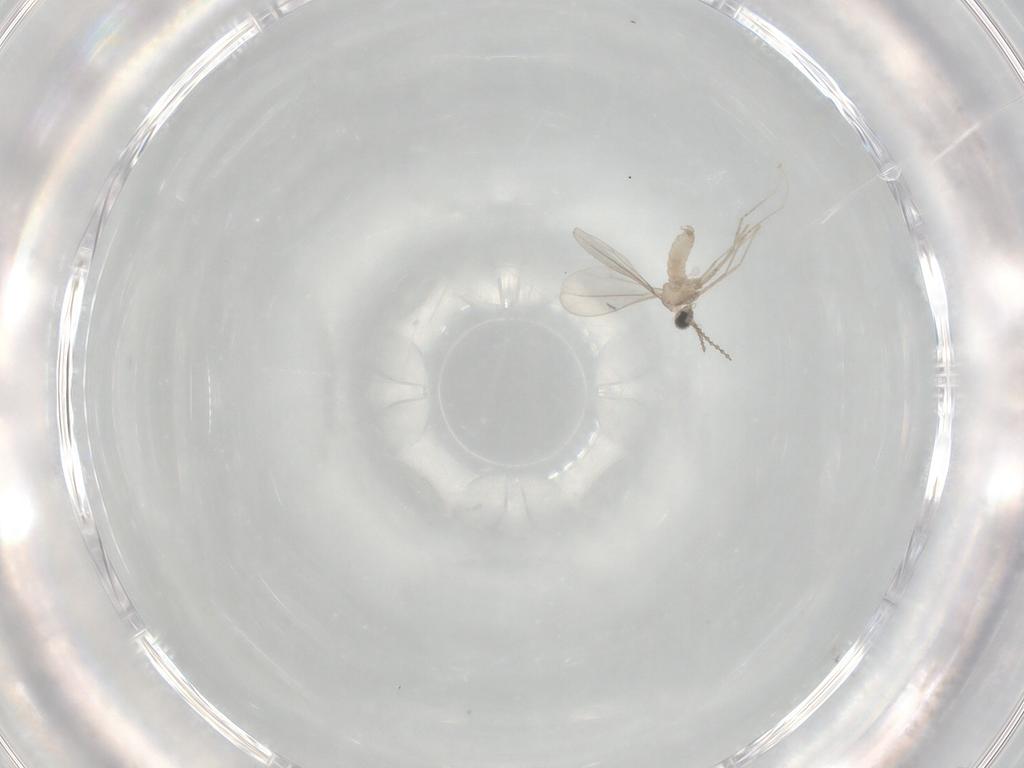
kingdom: Animalia
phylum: Arthropoda
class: Insecta
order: Diptera
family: Cecidomyiidae
